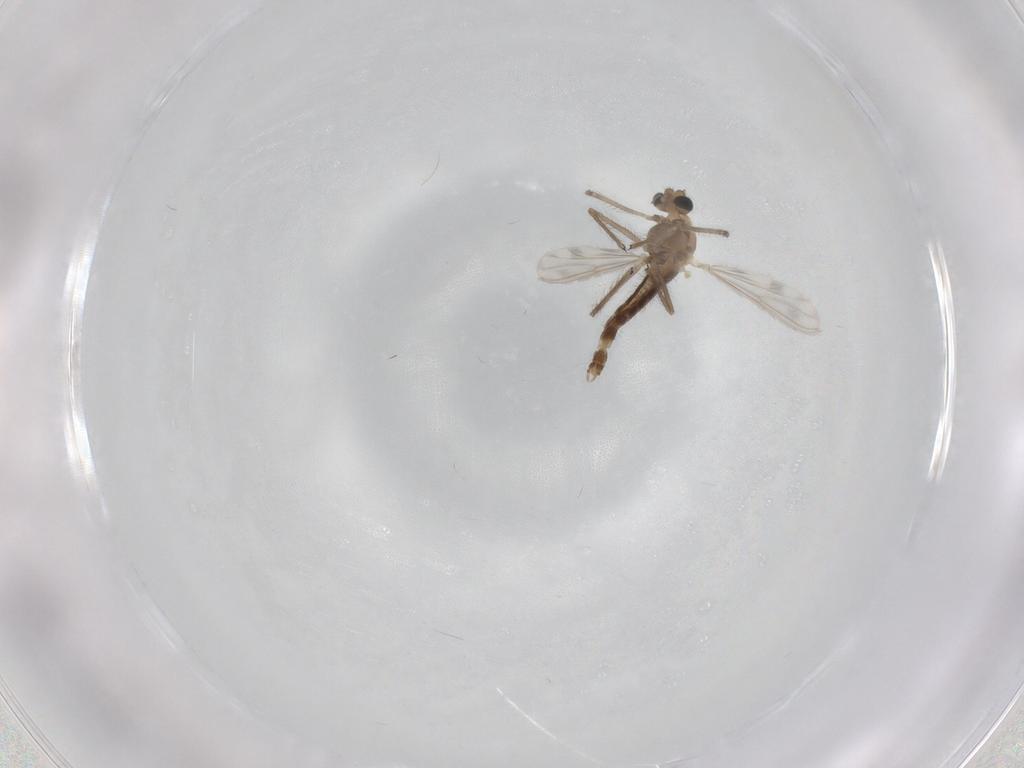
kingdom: Animalia
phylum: Arthropoda
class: Insecta
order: Diptera
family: Chironomidae
